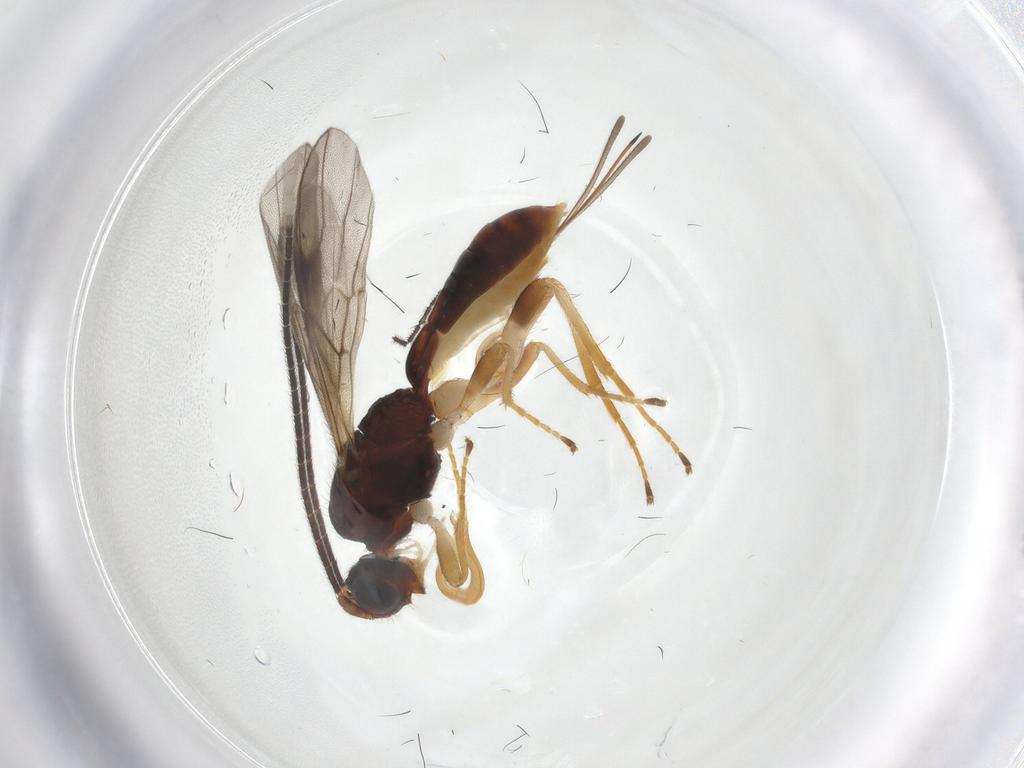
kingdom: Animalia
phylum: Arthropoda
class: Insecta
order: Hymenoptera
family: Braconidae
